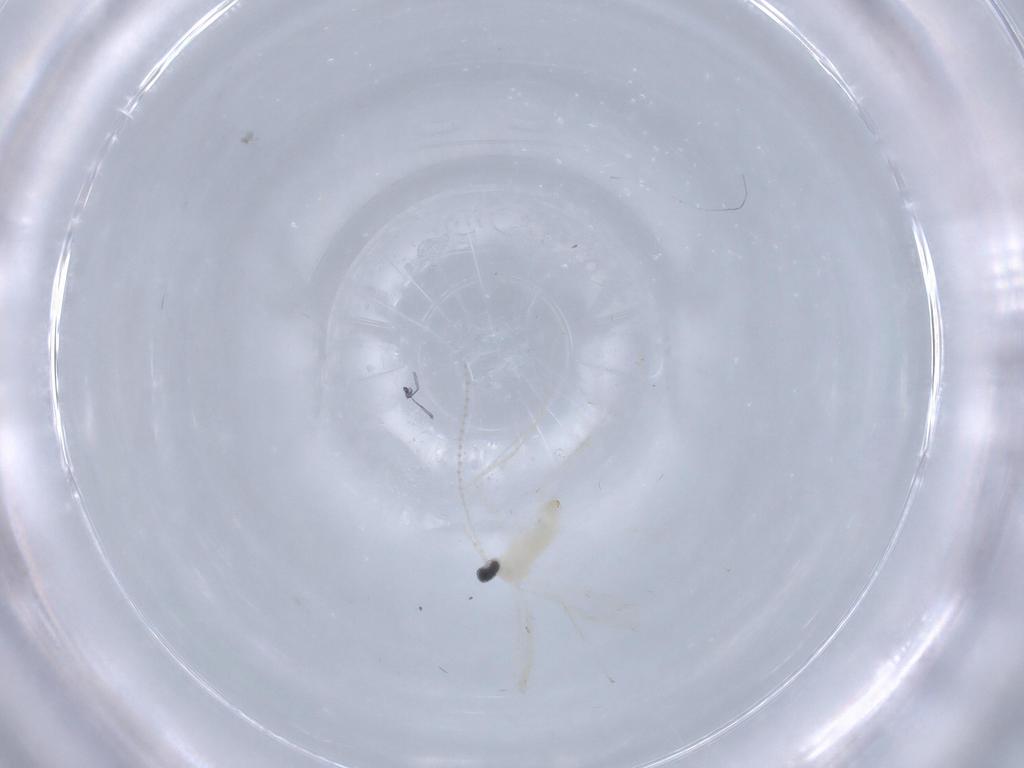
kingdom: Animalia
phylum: Arthropoda
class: Insecta
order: Diptera
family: Cecidomyiidae
